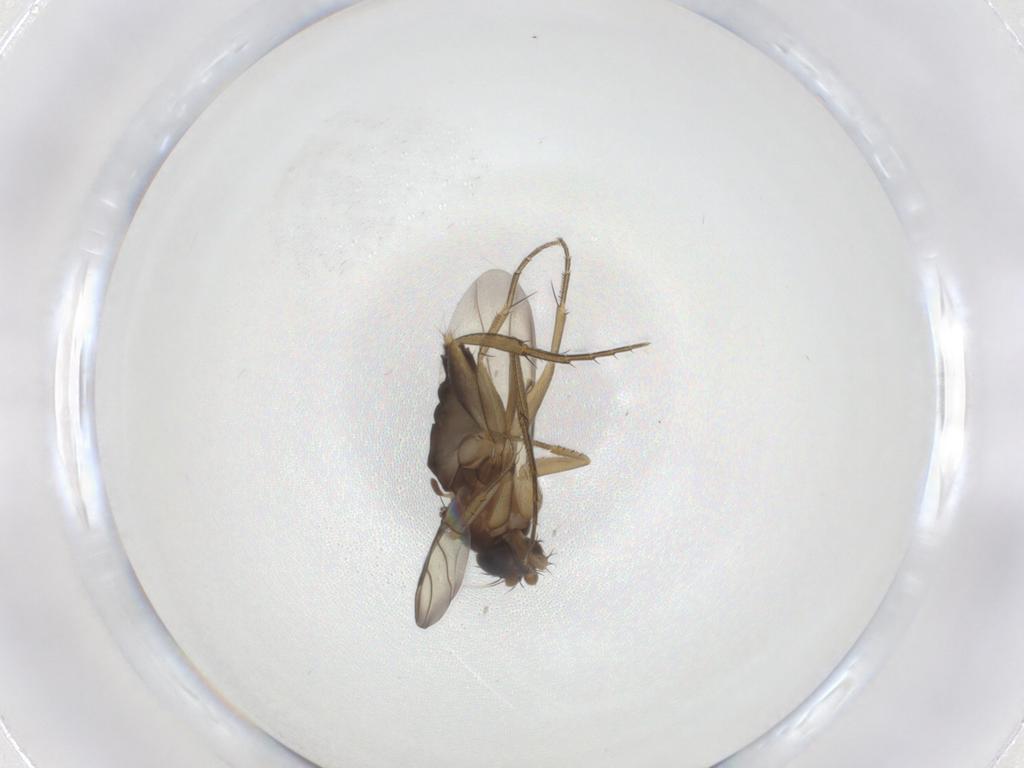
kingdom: Animalia
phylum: Arthropoda
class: Insecta
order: Diptera
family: Phoridae
